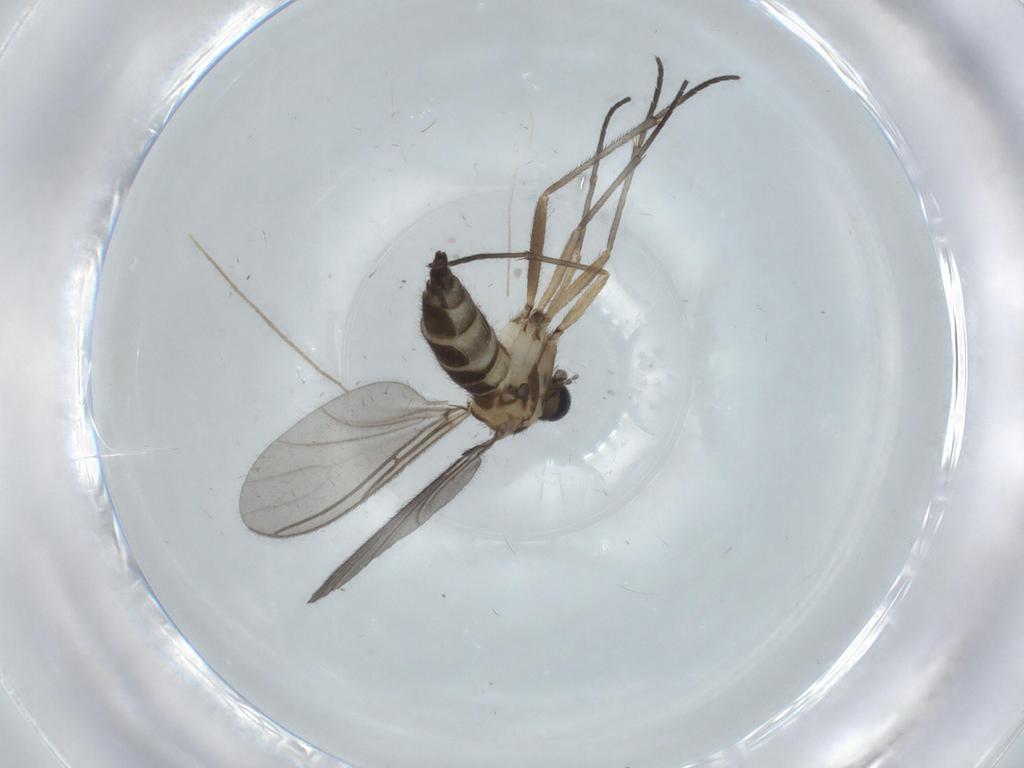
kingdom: Animalia
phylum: Arthropoda
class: Insecta
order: Diptera
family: Sciaridae
